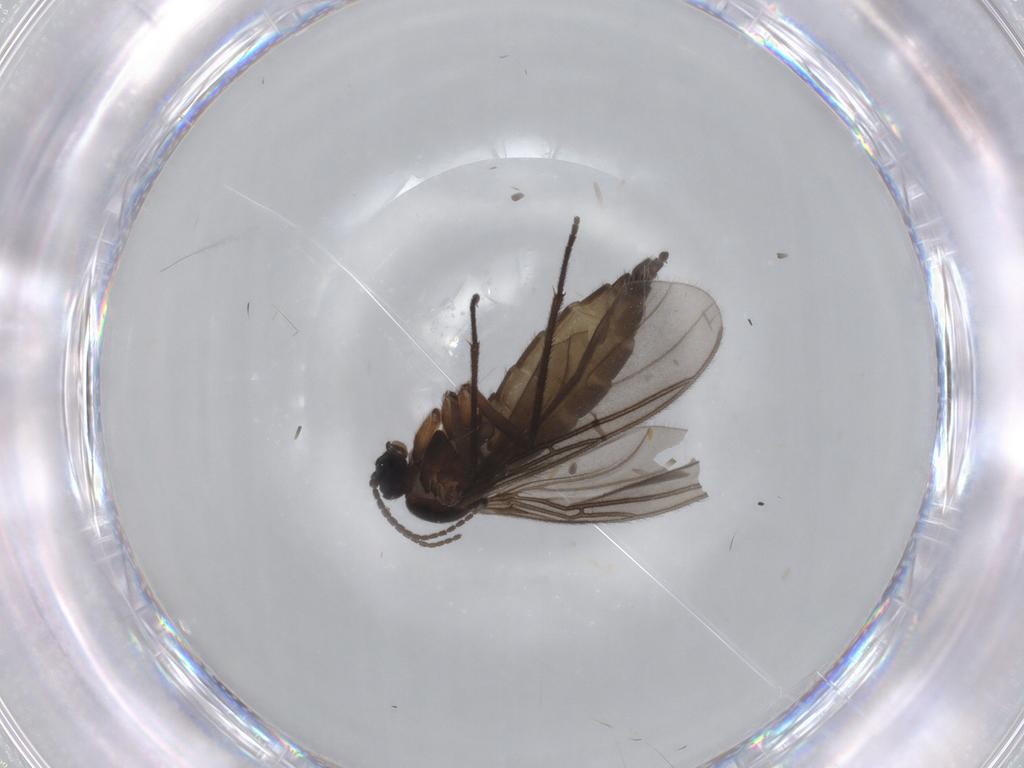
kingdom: Animalia
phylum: Arthropoda
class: Insecta
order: Diptera
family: Sciaridae
